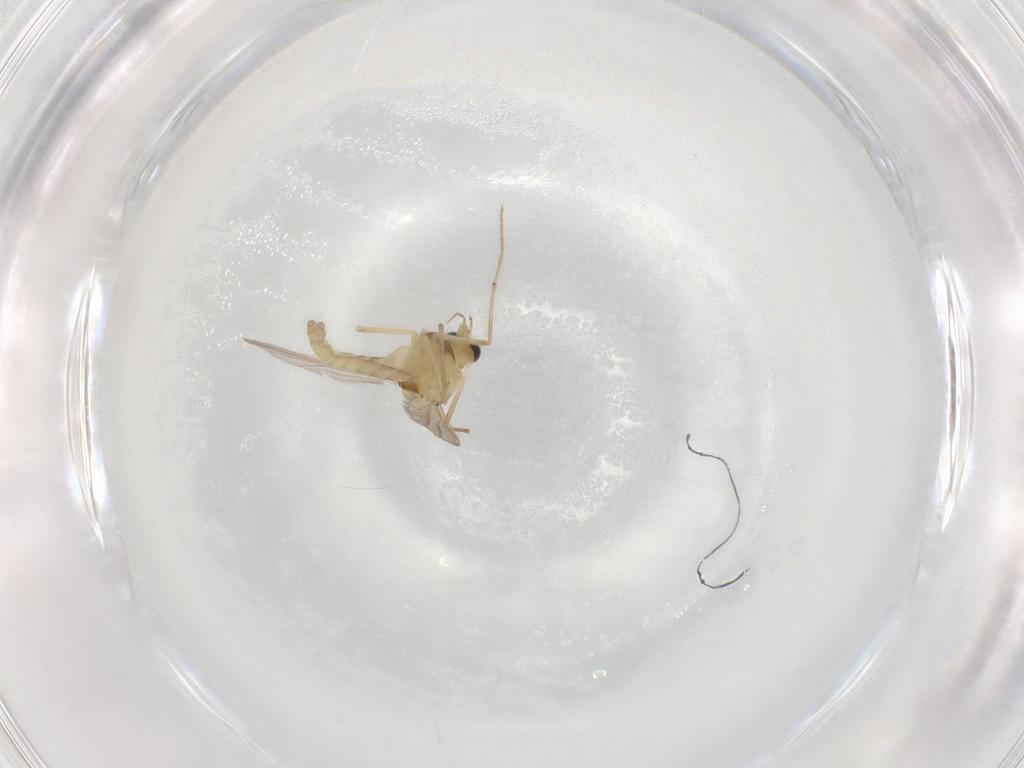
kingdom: Animalia
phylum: Arthropoda
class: Insecta
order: Diptera
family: Chironomidae
